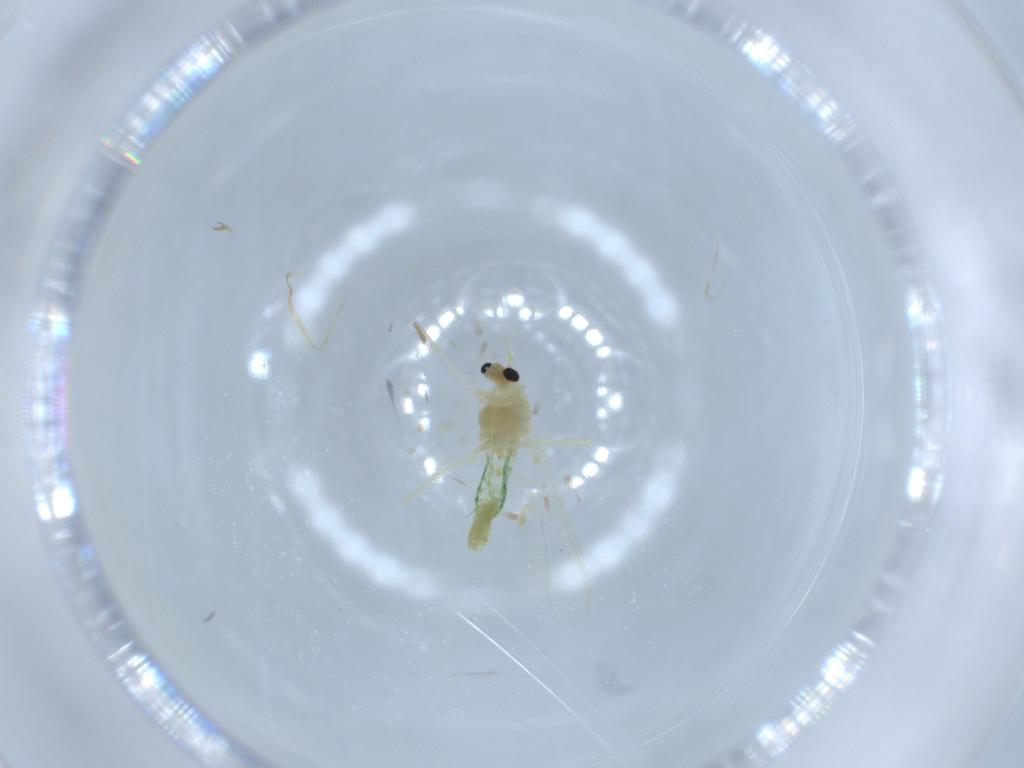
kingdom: Animalia
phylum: Arthropoda
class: Insecta
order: Diptera
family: Chironomidae
